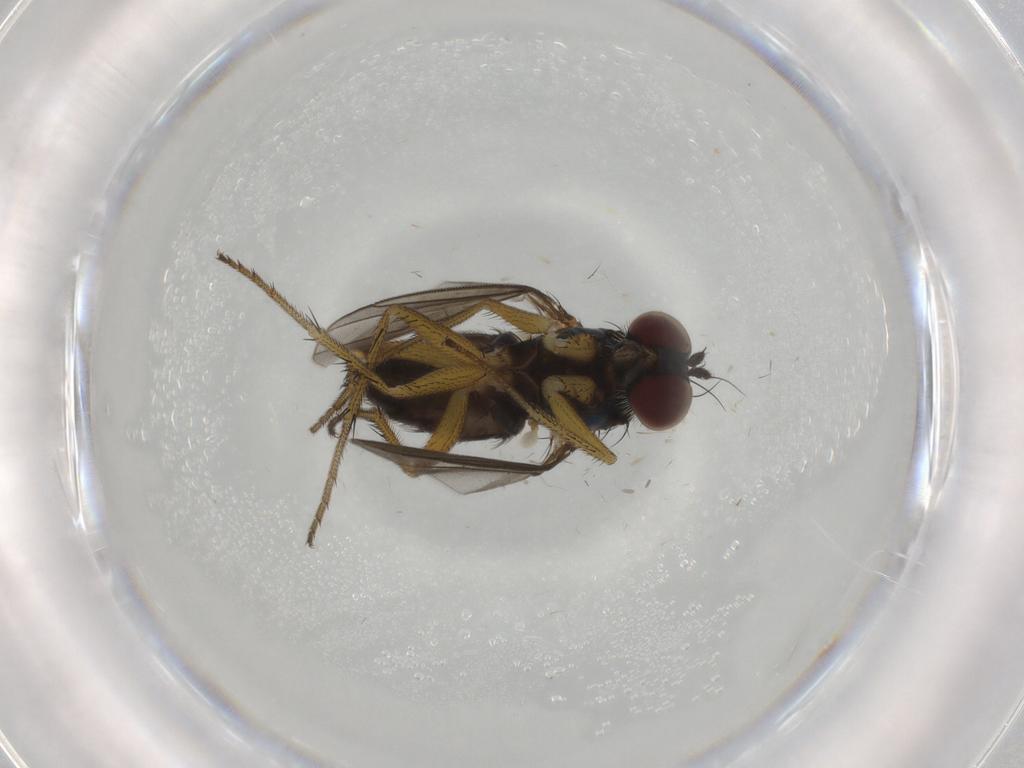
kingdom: Animalia
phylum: Arthropoda
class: Insecta
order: Diptera
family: Dolichopodidae
